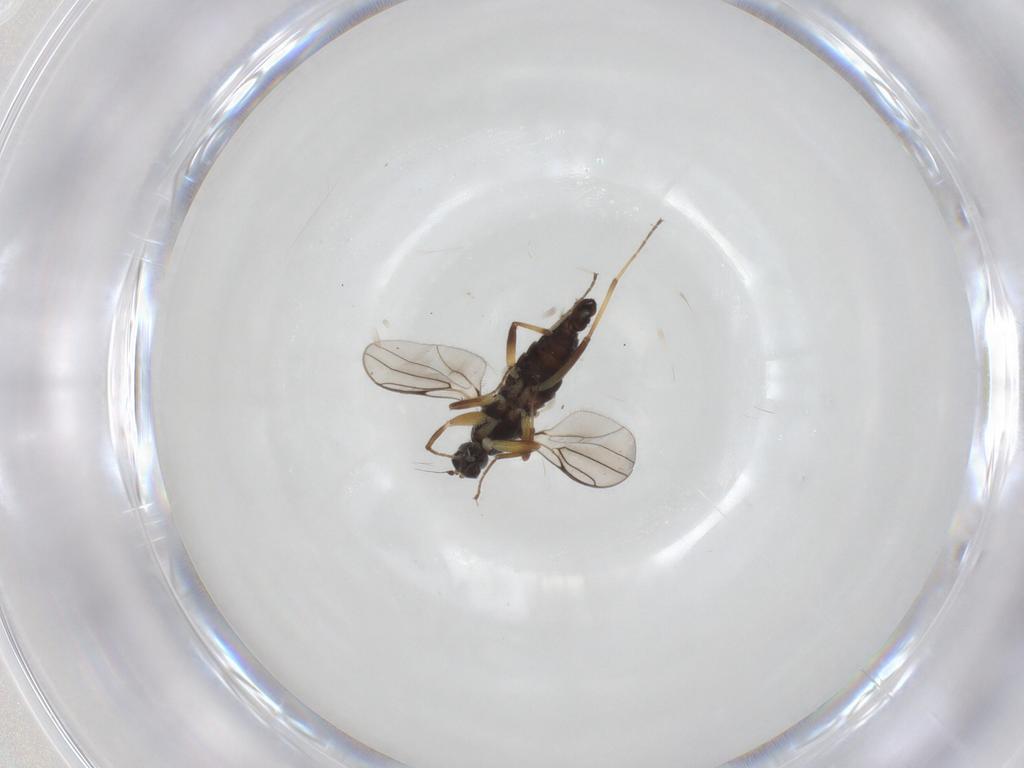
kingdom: Animalia
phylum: Arthropoda
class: Insecta
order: Diptera
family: Hybotidae
